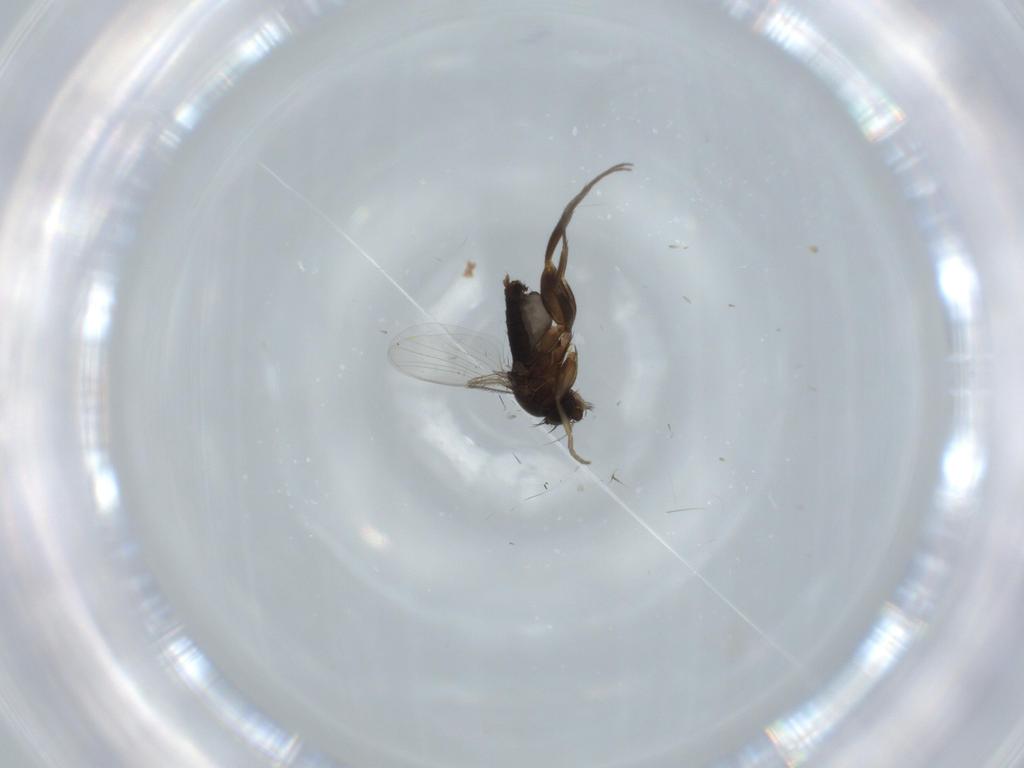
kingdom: Animalia
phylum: Arthropoda
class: Insecta
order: Diptera
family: Phoridae
